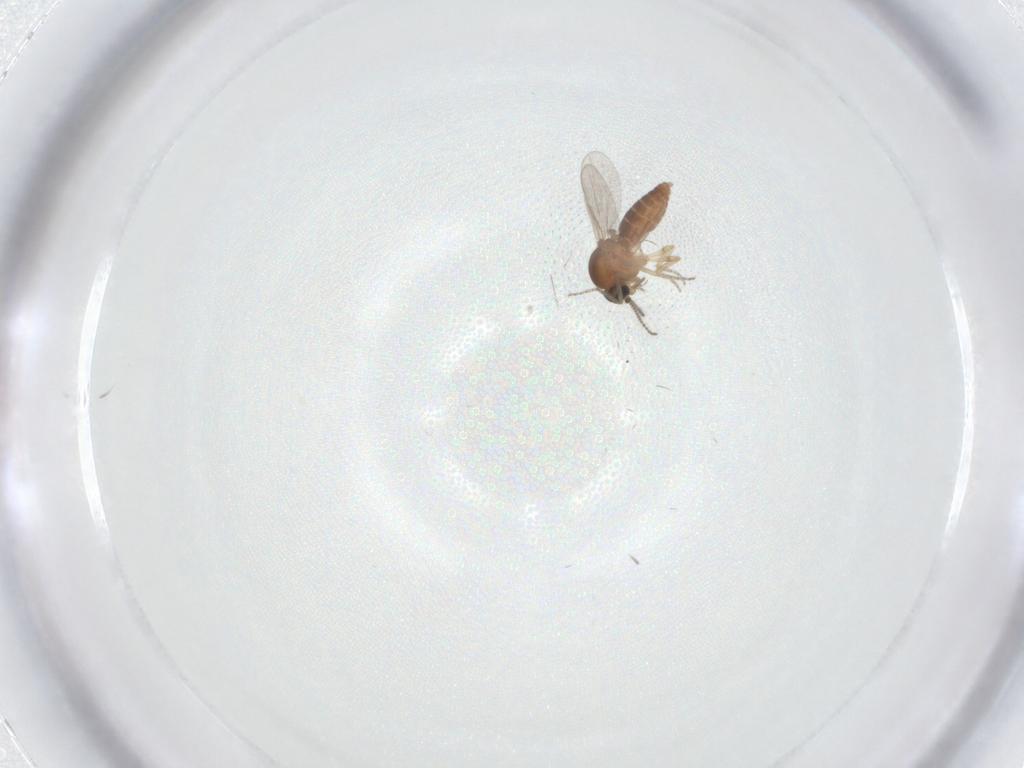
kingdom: Animalia
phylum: Arthropoda
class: Insecta
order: Diptera
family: Ceratopogonidae
